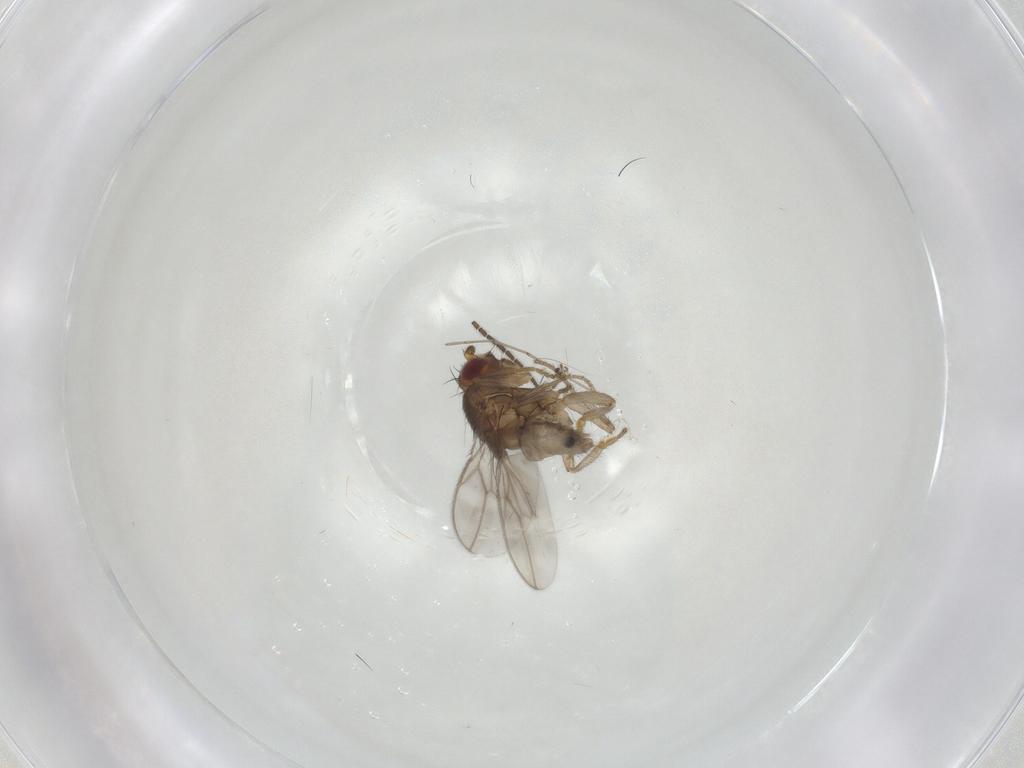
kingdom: Animalia
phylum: Arthropoda
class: Insecta
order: Diptera
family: Sphaeroceridae
